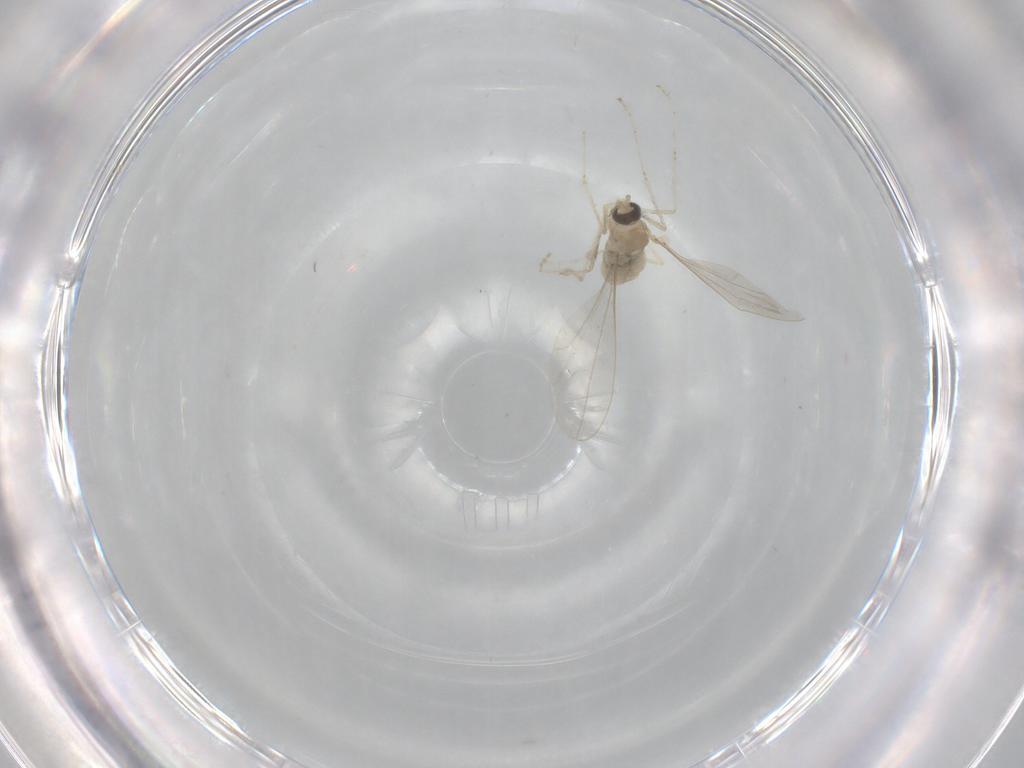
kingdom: Animalia
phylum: Arthropoda
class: Insecta
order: Diptera
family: Cecidomyiidae
